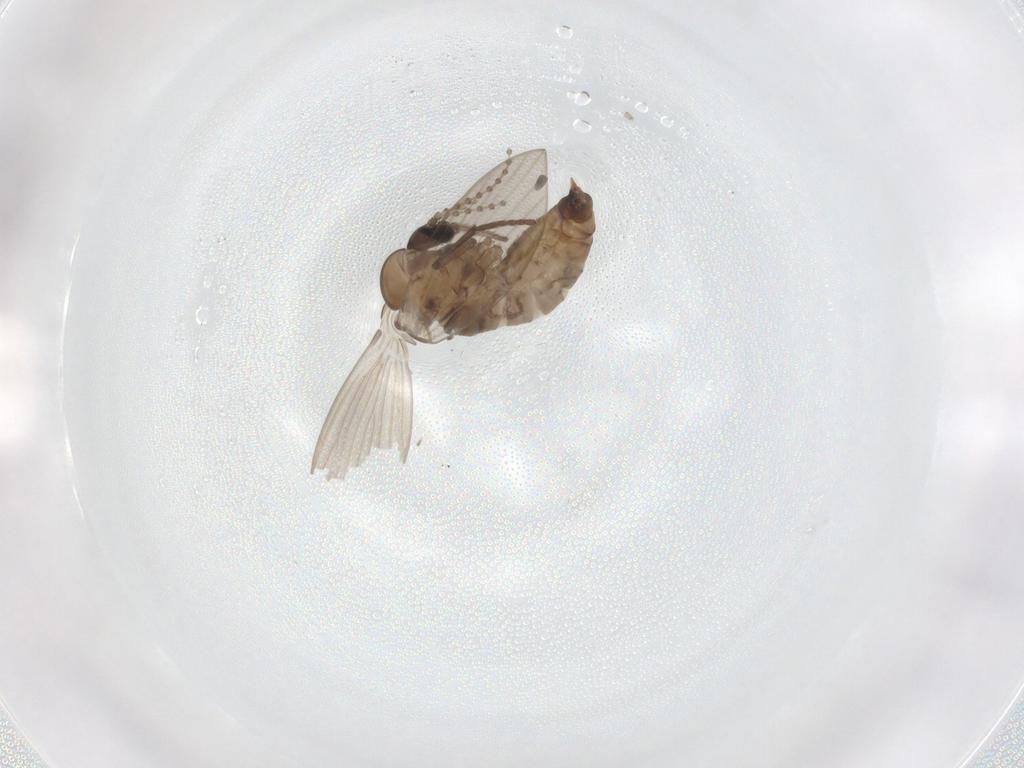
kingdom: Animalia
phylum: Arthropoda
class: Insecta
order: Diptera
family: Psychodidae
